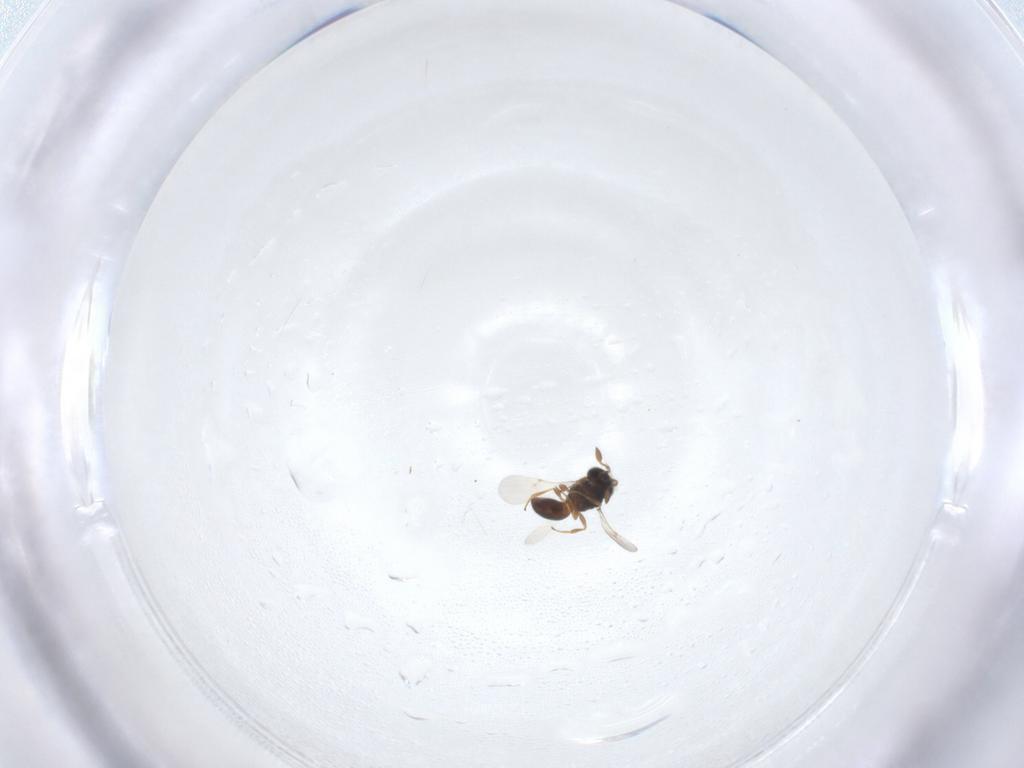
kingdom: Animalia
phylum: Arthropoda
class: Insecta
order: Hymenoptera
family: Scelionidae
